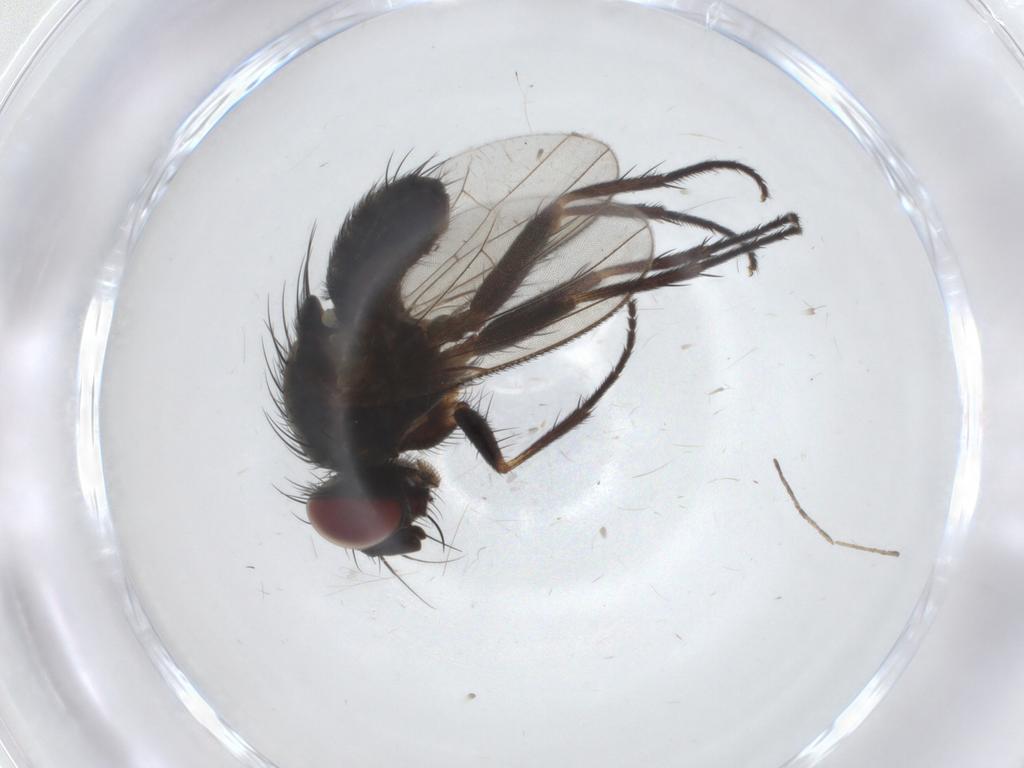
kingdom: Animalia
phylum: Arthropoda
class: Insecta
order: Diptera
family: Muscidae
